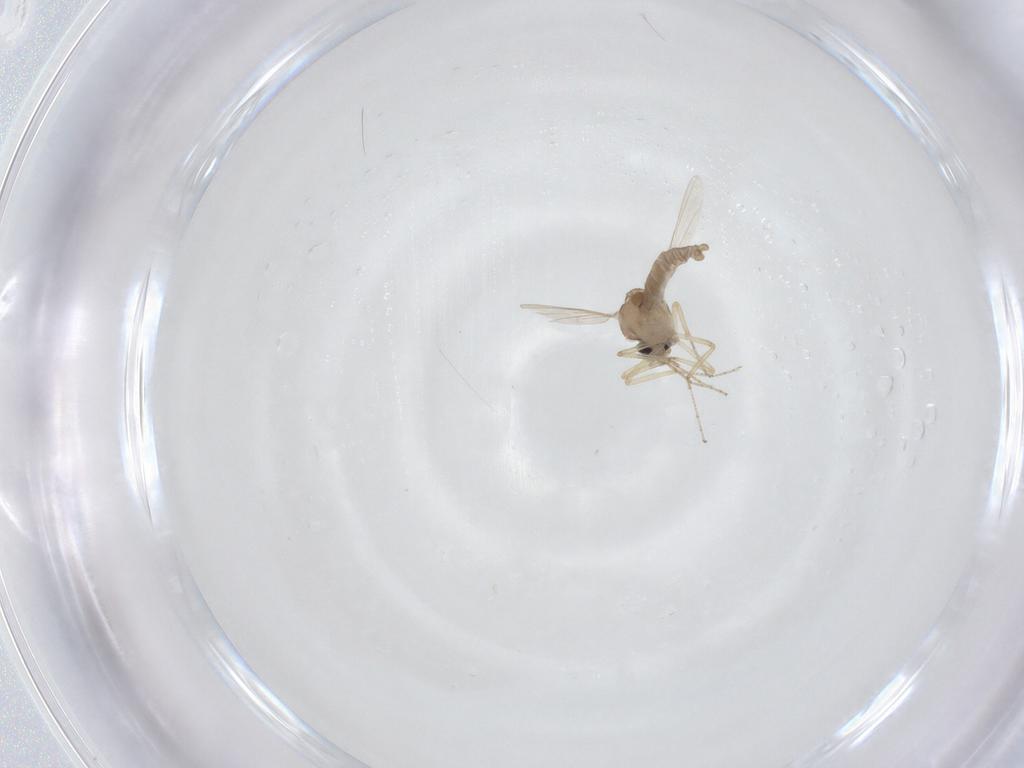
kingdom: Animalia
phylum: Arthropoda
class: Insecta
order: Diptera
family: Ceratopogonidae
